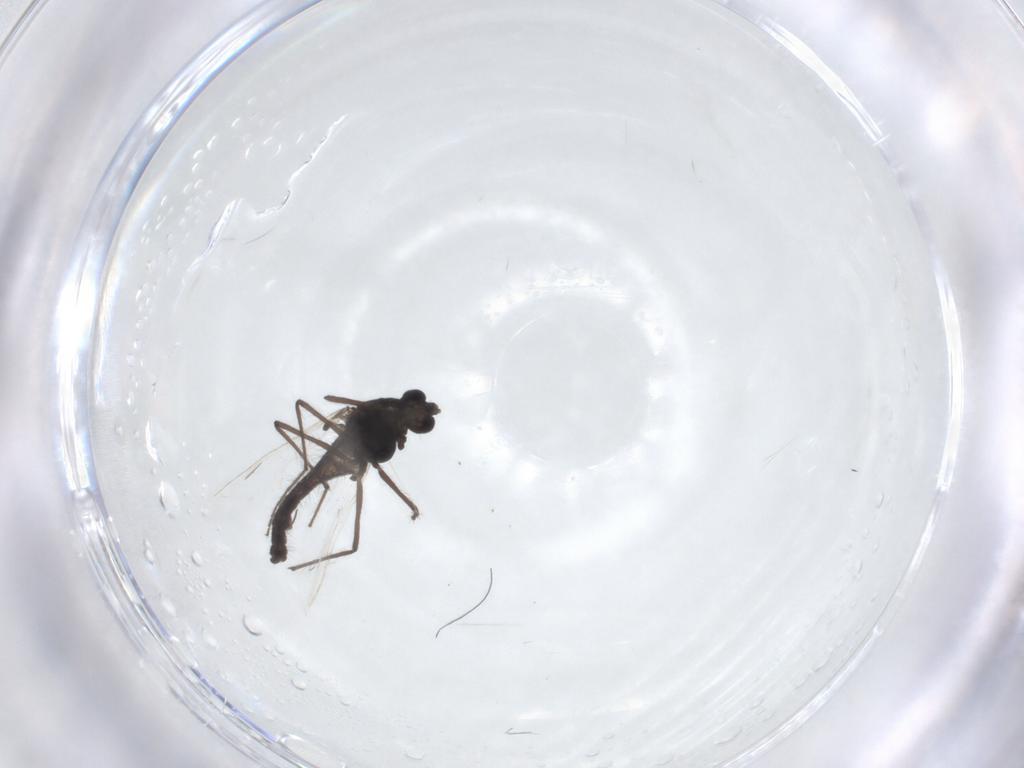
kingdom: Animalia
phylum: Arthropoda
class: Insecta
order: Diptera
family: Chironomidae
